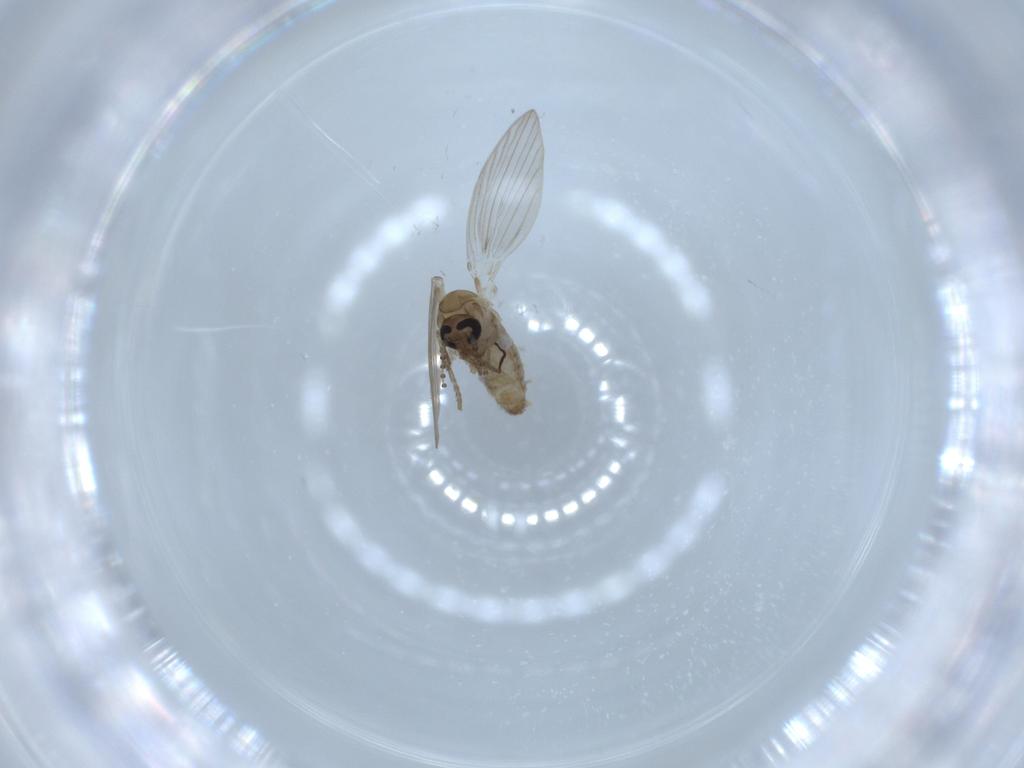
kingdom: Animalia
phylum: Arthropoda
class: Insecta
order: Diptera
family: Psychodidae
